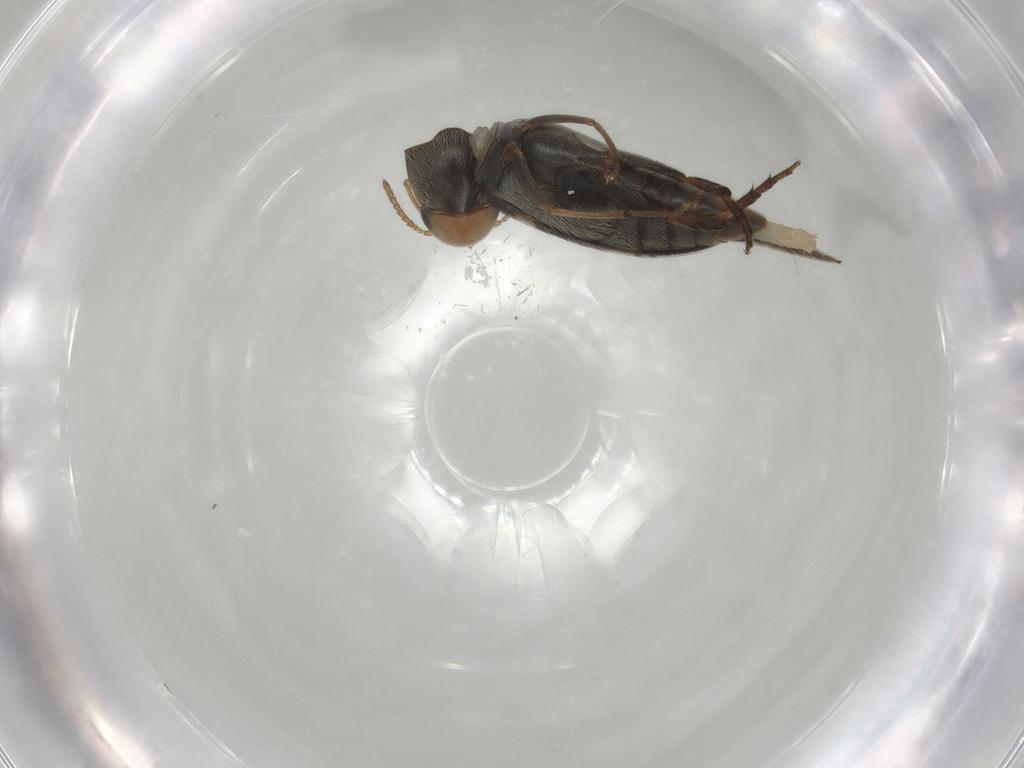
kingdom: Animalia
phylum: Arthropoda
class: Insecta
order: Coleoptera
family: Mordellidae
